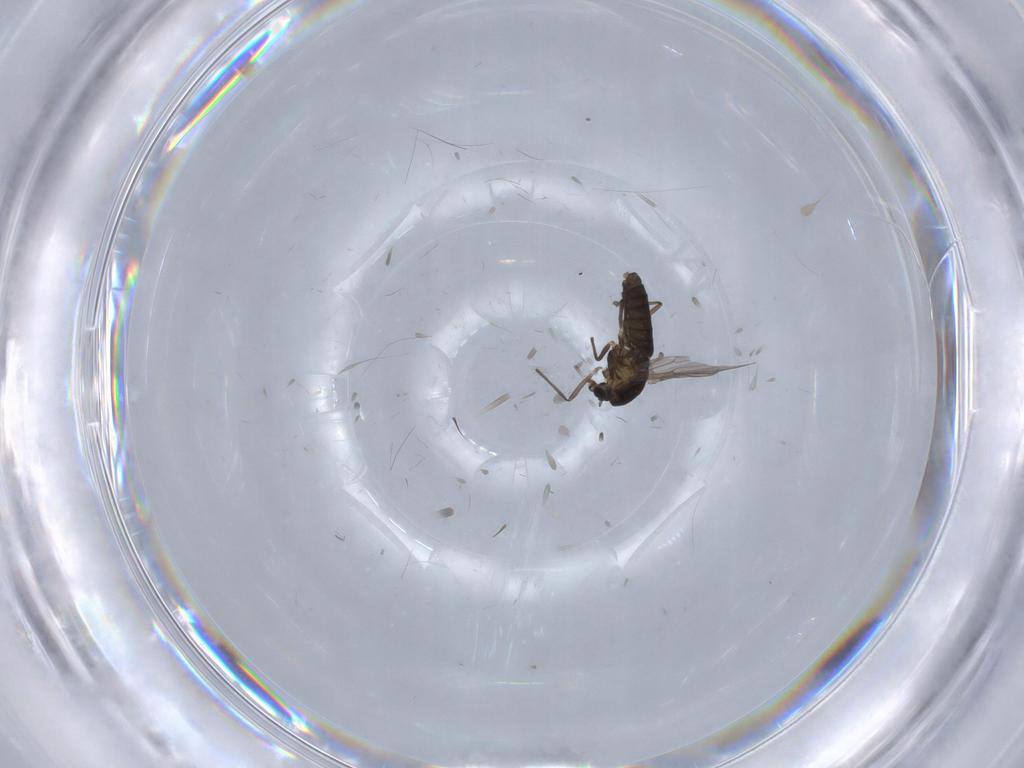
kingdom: Animalia
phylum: Arthropoda
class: Insecta
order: Diptera
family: Chironomidae
